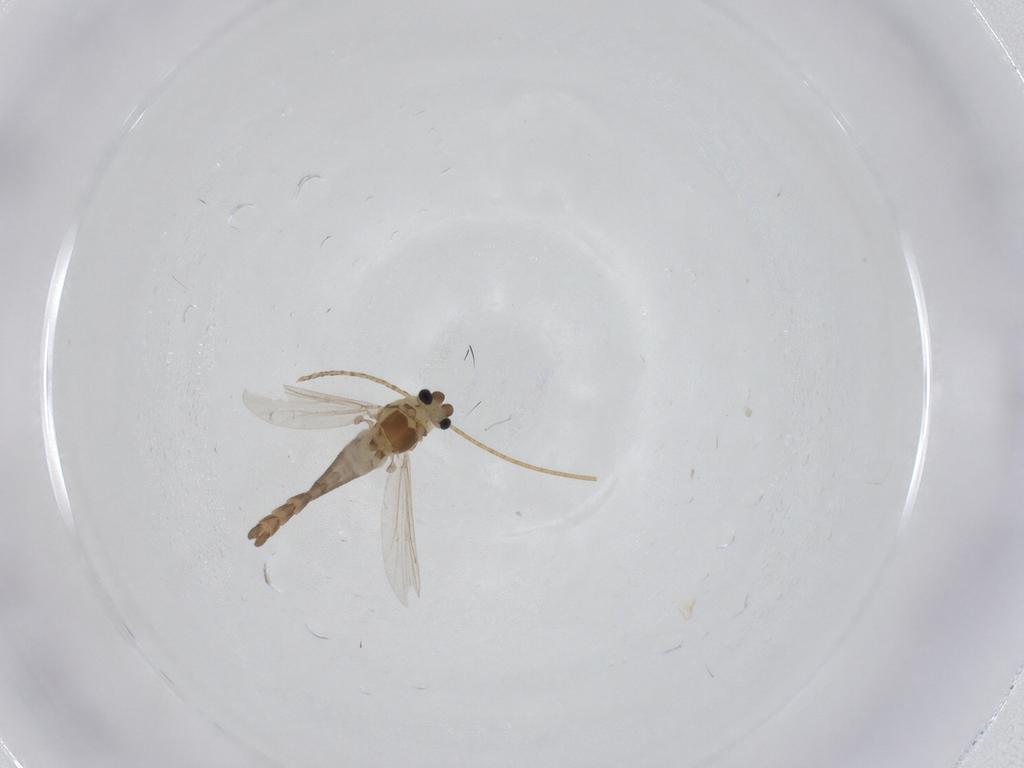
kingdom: Animalia
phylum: Arthropoda
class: Insecta
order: Diptera
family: Chironomidae
